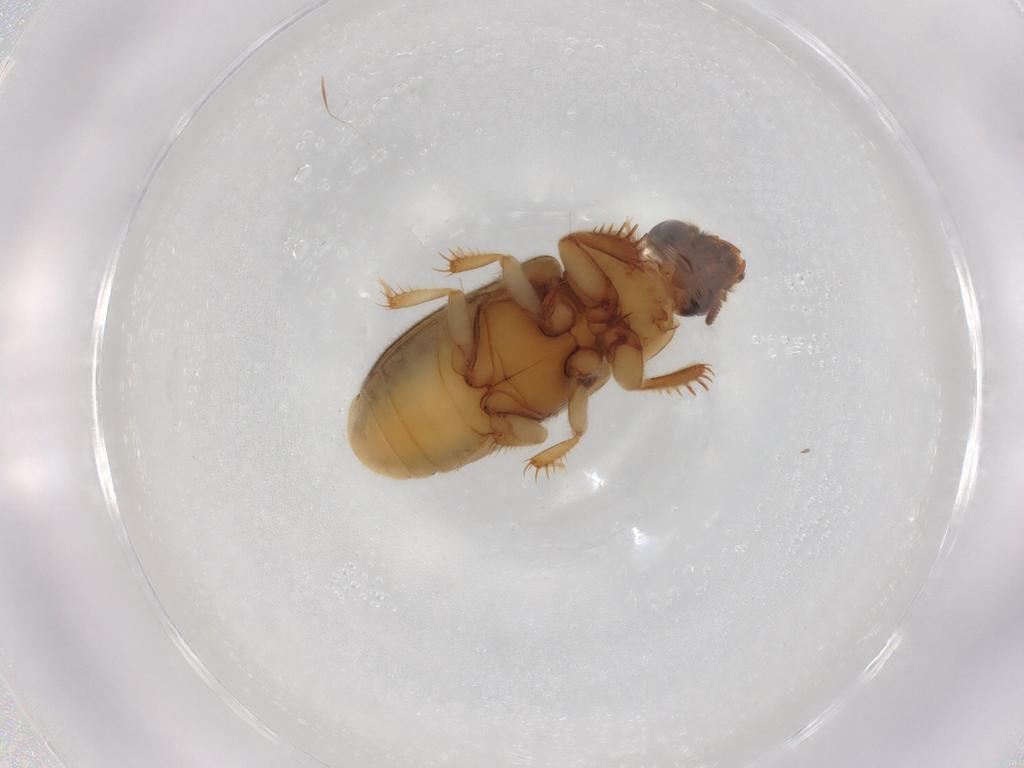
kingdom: Animalia
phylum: Arthropoda
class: Insecta
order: Coleoptera
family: Heteroceridae
